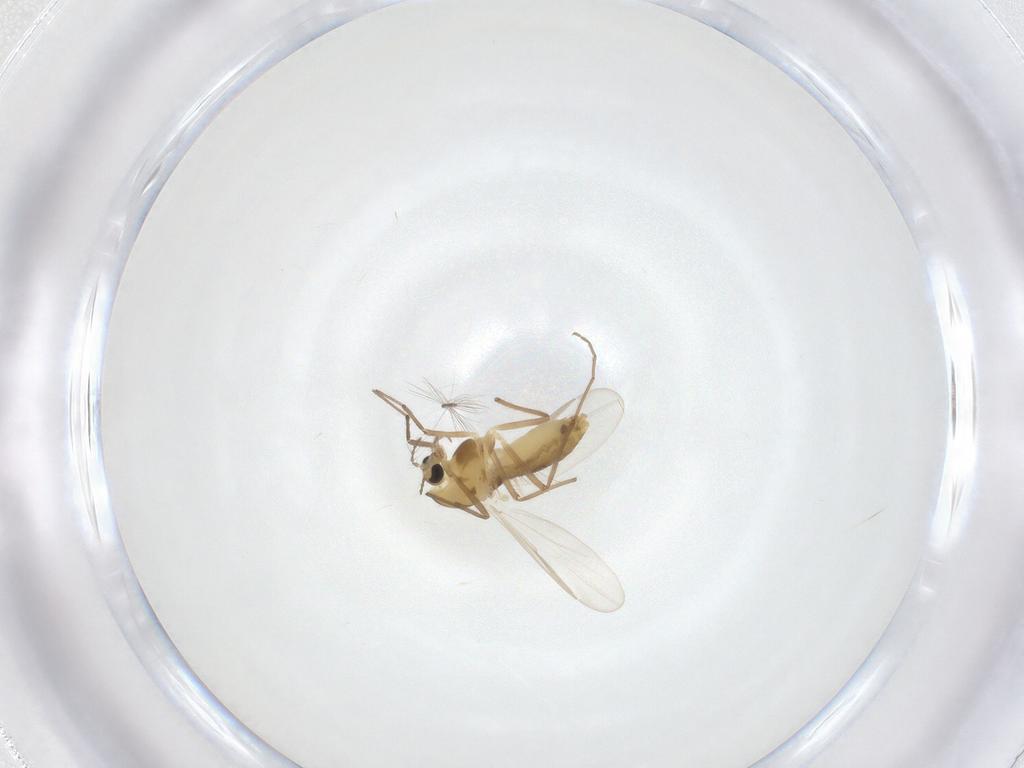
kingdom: Animalia
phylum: Arthropoda
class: Insecta
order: Diptera
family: Chironomidae
